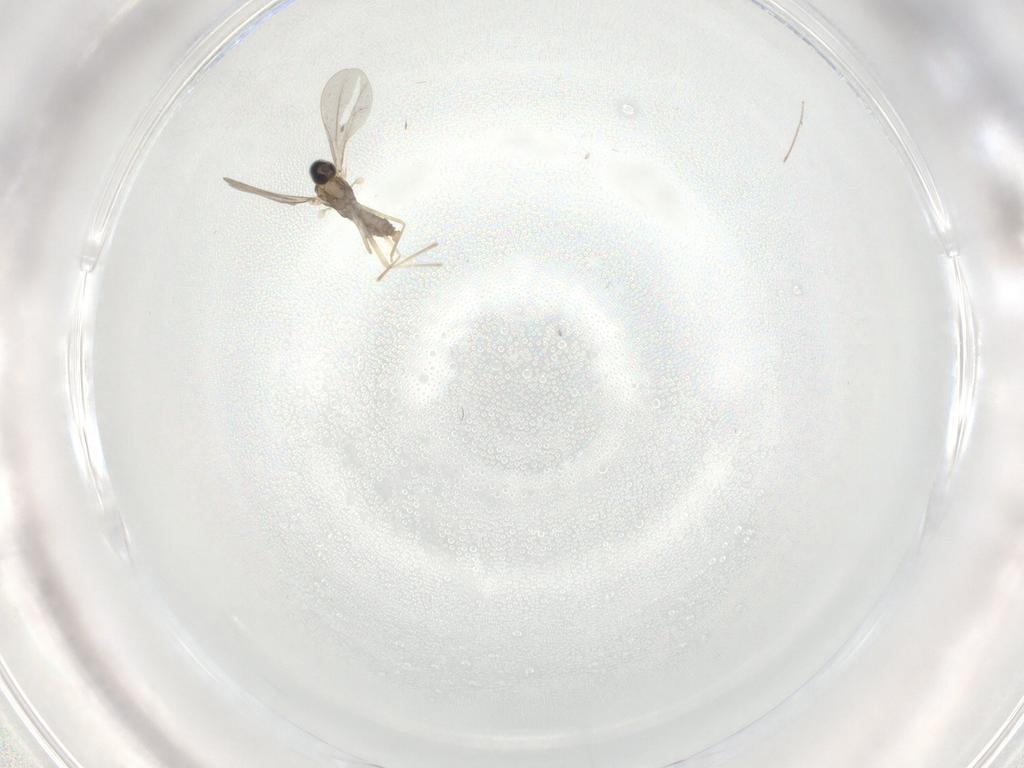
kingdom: Animalia
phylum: Arthropoda
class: Insecta
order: Diptera
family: Cecidomyiidae
